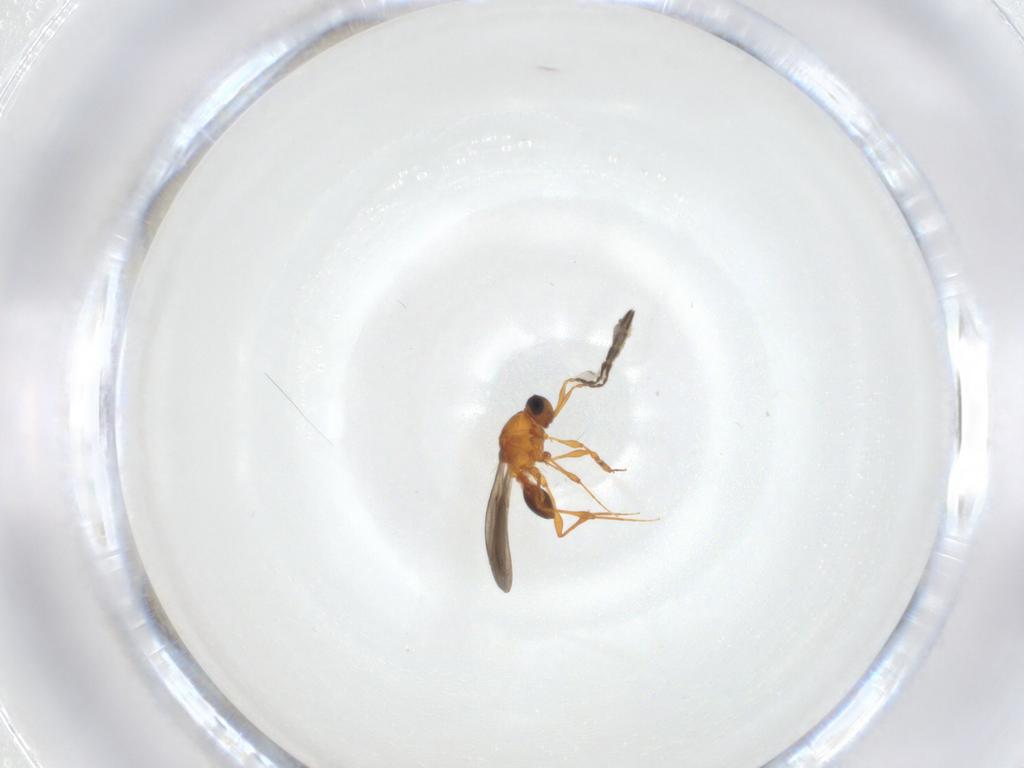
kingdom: Animalia
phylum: Arthropoda
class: Insecta
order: Hymenoptera
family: Platygastridae
